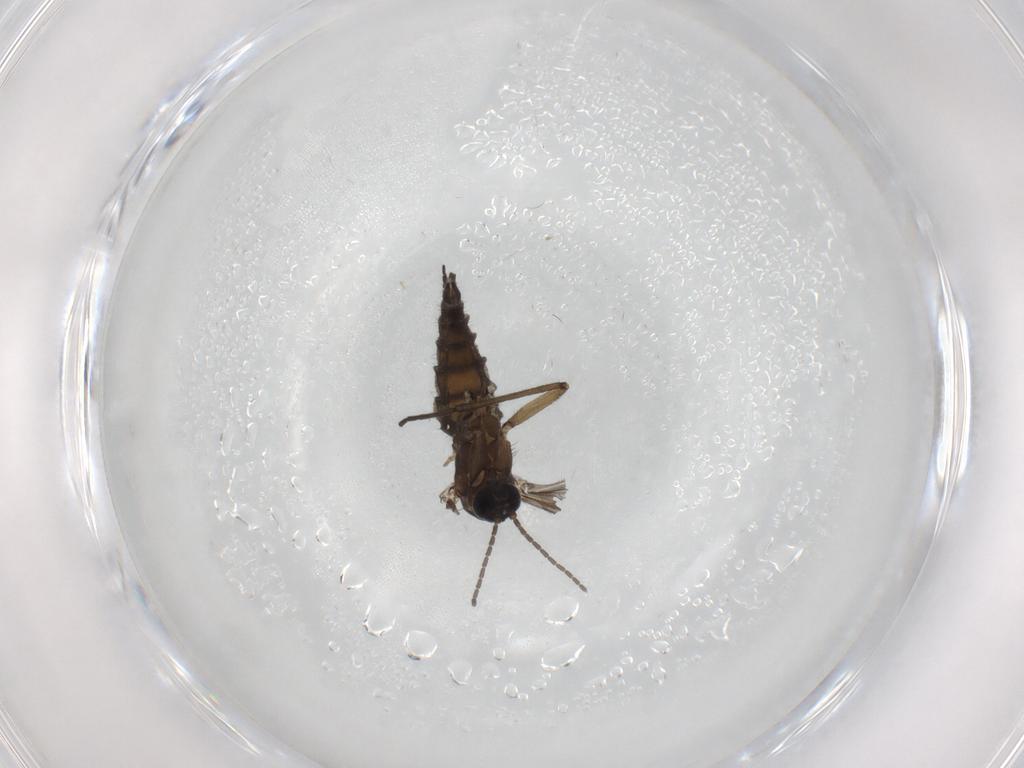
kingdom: Animalia
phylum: Arthropoda
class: Insecta
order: Diptera
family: Sciaridae
